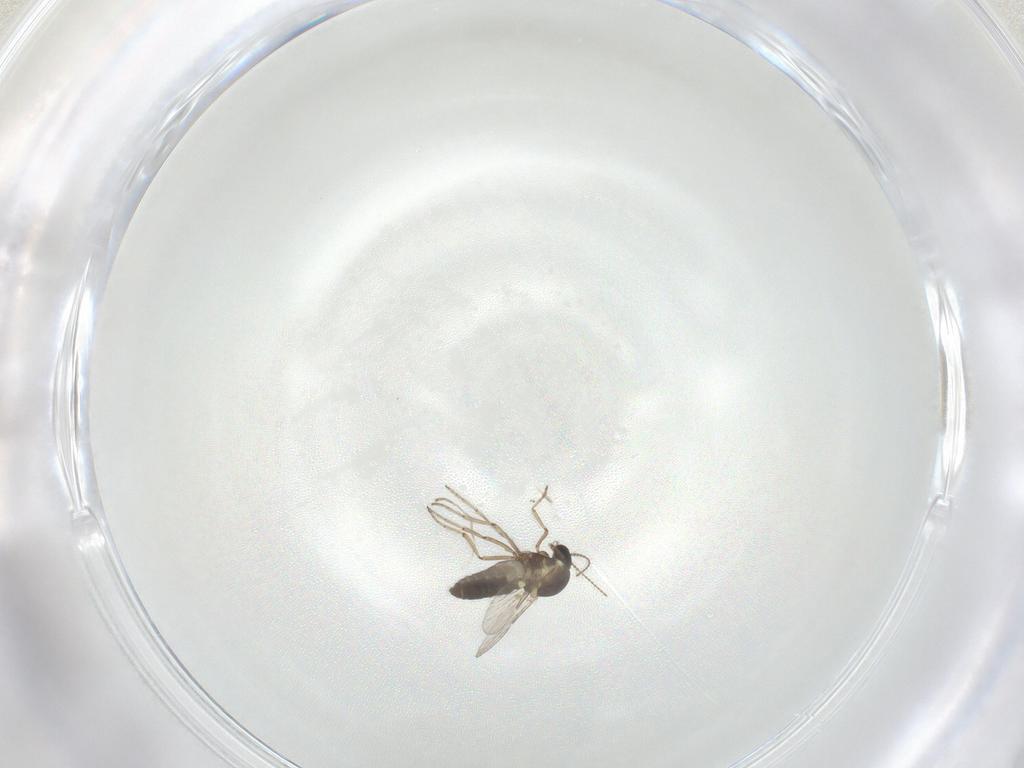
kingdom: Animalia
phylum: Arthropoda
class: Insecta
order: Diptera
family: Ceratopogonidae
